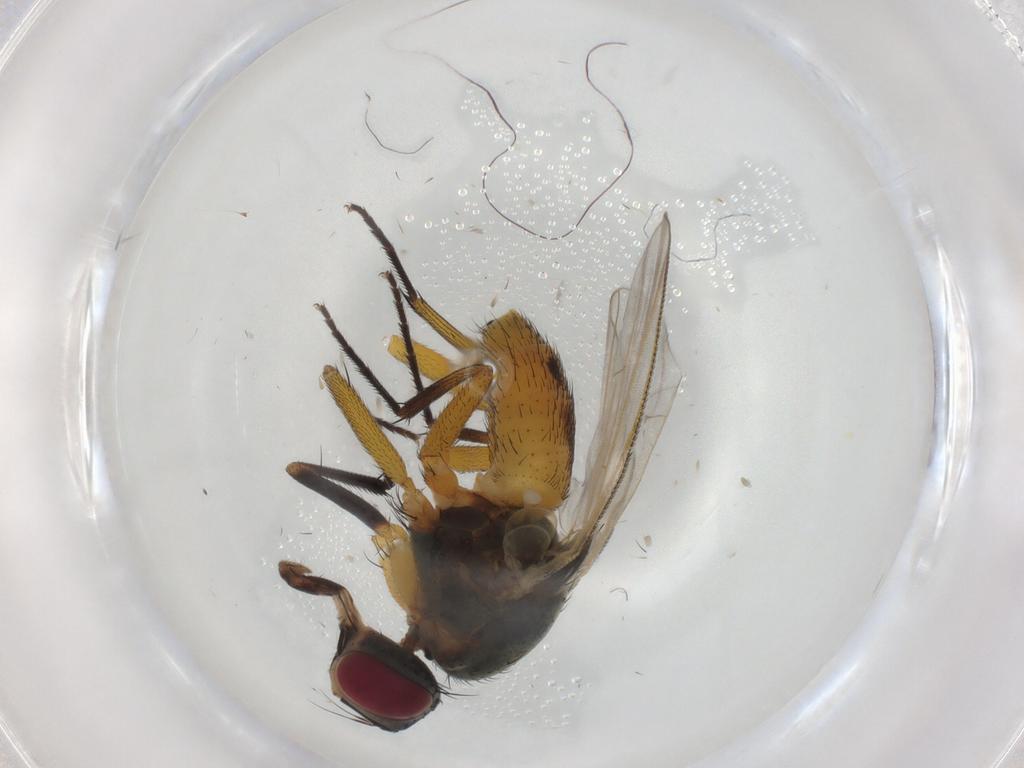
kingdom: Animalia
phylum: Arthropoda
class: Insecta
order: Diptera
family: Muscidae
